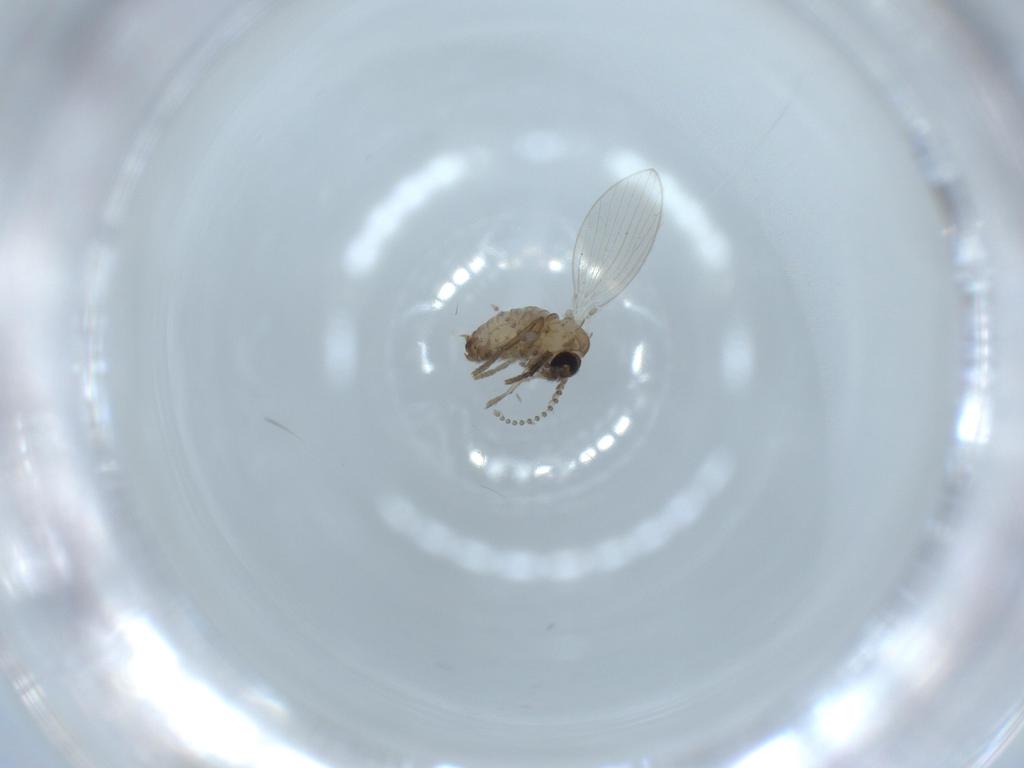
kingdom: Animalia
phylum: Arthropoda
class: Insecta
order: Diptera
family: Psychodidae
